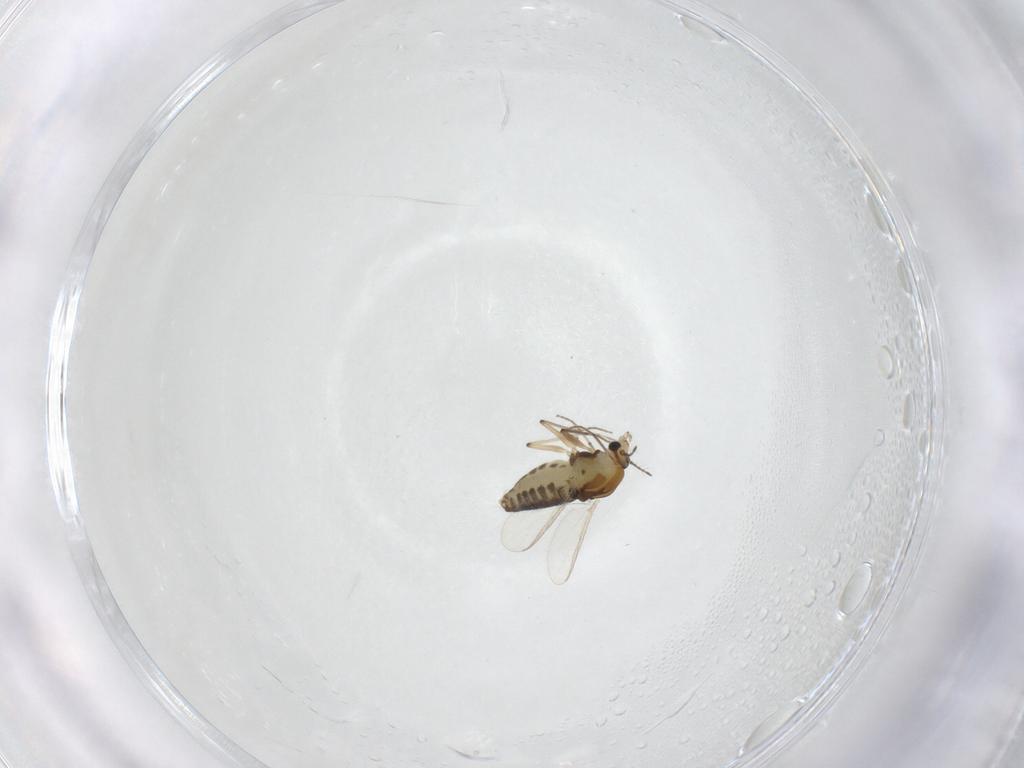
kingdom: Animalia
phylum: Arthropoda
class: Insecta
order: Diptera
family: Chironomidae
